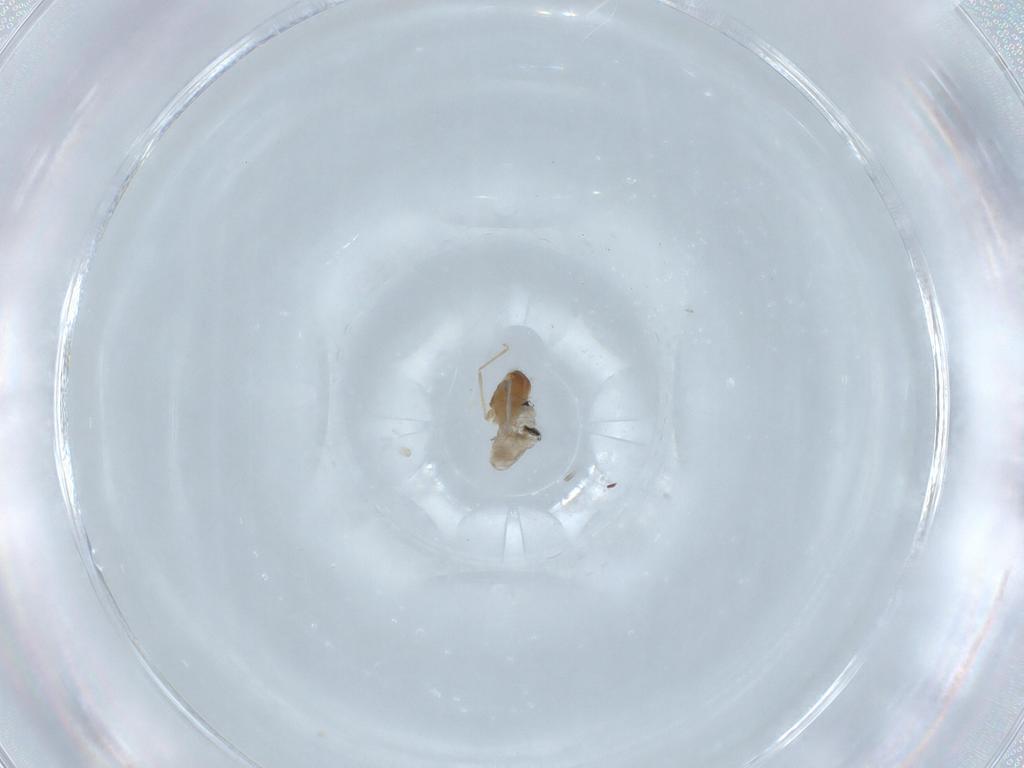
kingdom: Animalia
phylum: Arthropoda
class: Insecta
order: Diptera
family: Cecidomyiidae
